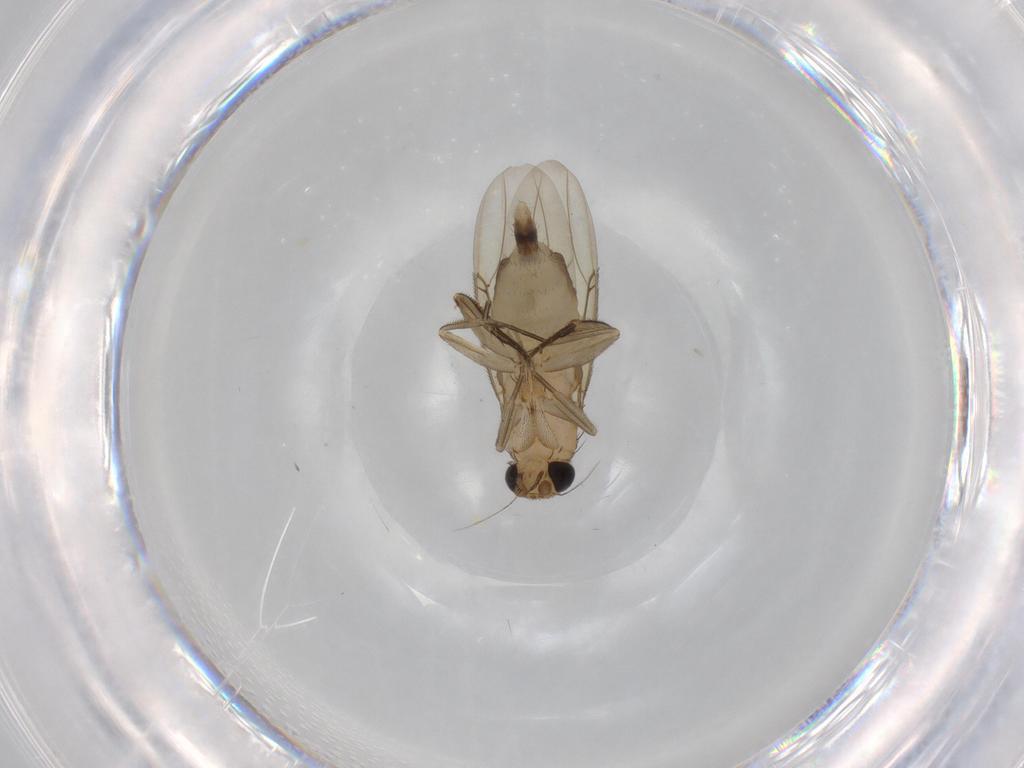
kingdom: Animalia
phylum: Arthropoda
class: Insecta
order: Diptera
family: Phoridae
